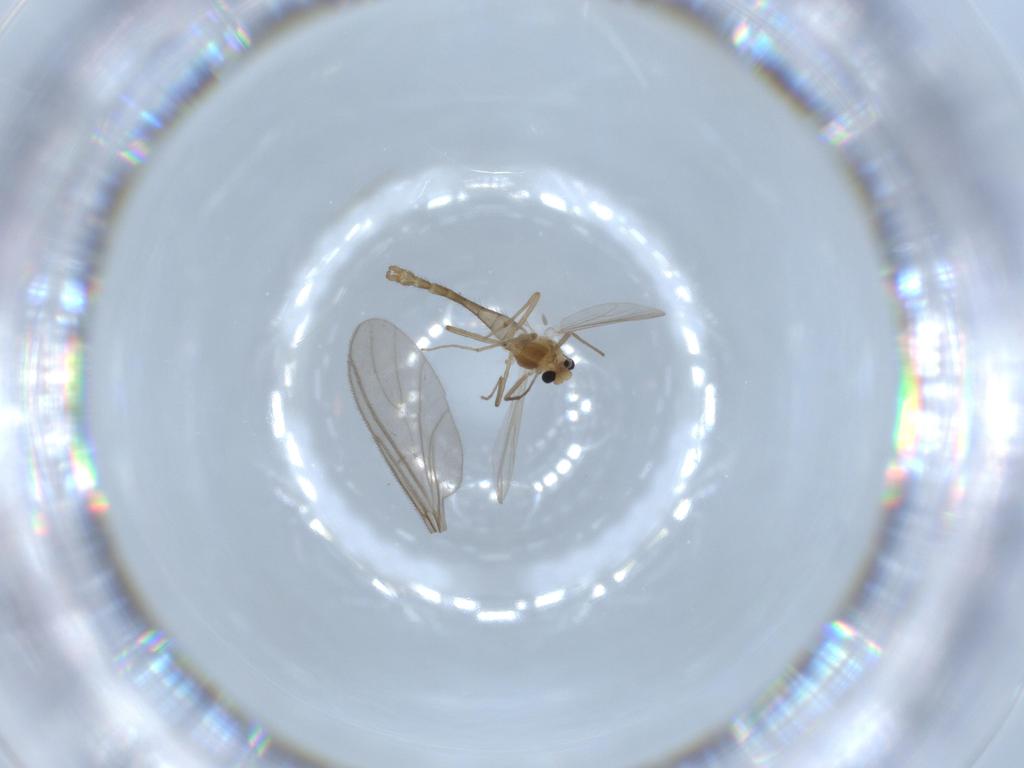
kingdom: Animalia
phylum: Arthropoda
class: Insecta
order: Diptera
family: Chironomidae
